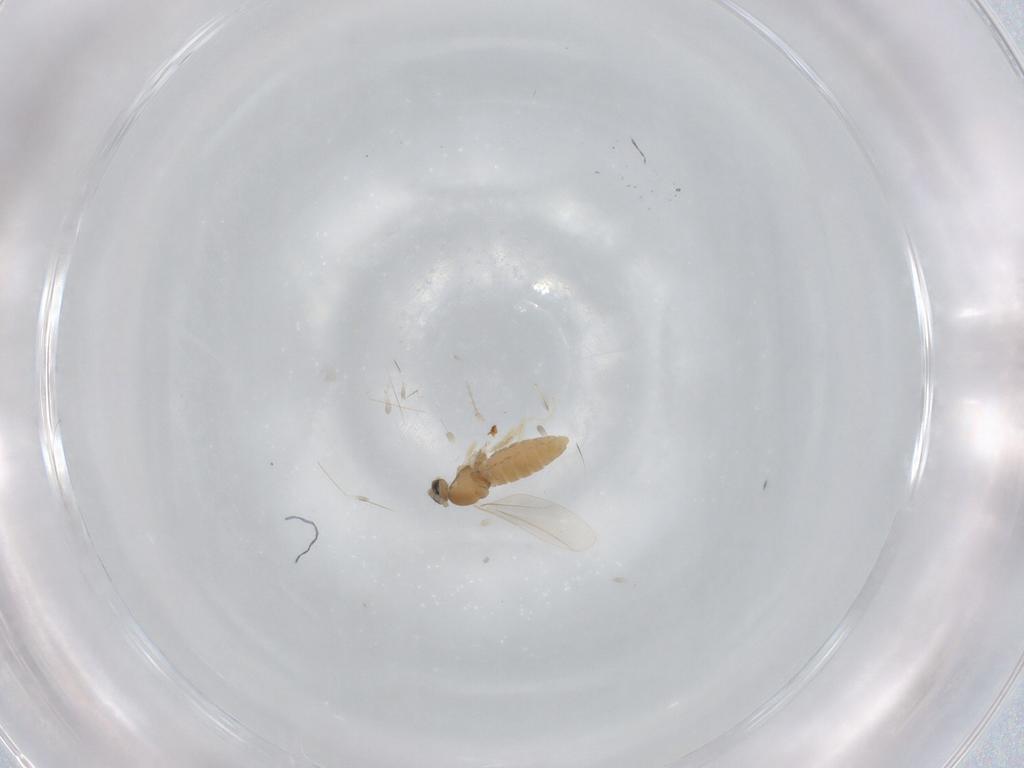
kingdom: Animalia
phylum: Arthropoda
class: Insecta
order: Diptera
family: Cecidomyiidae
